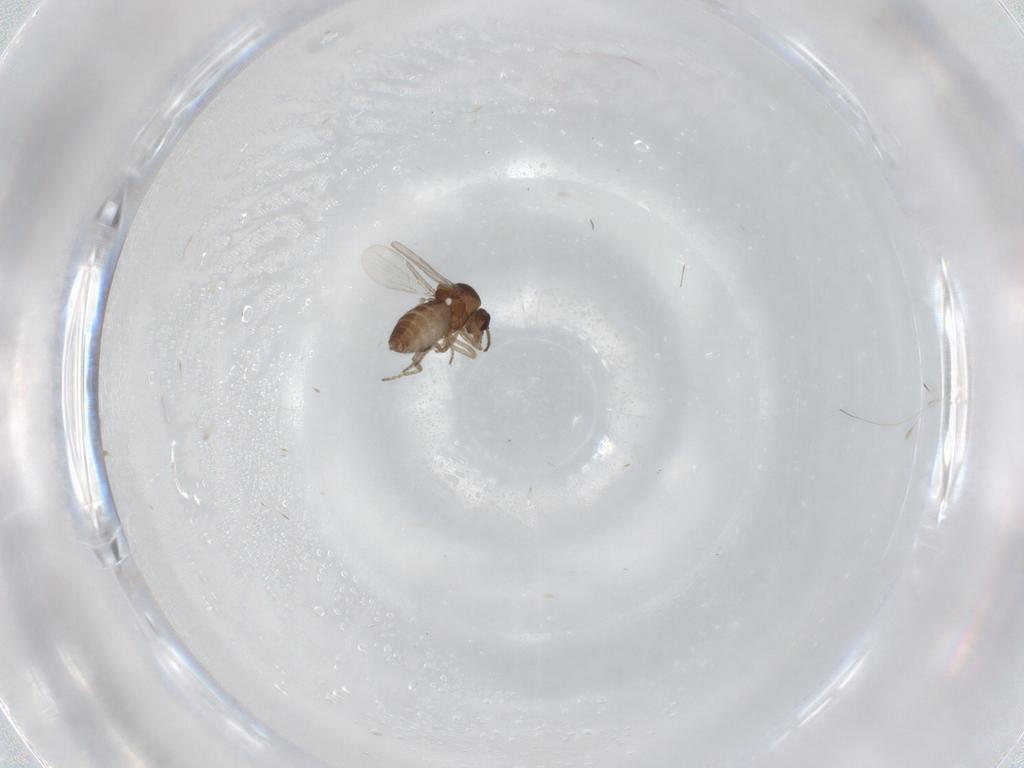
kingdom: Animalia
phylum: Arthropoda
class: Insecta
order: Diptera
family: Ceratopogonidae
